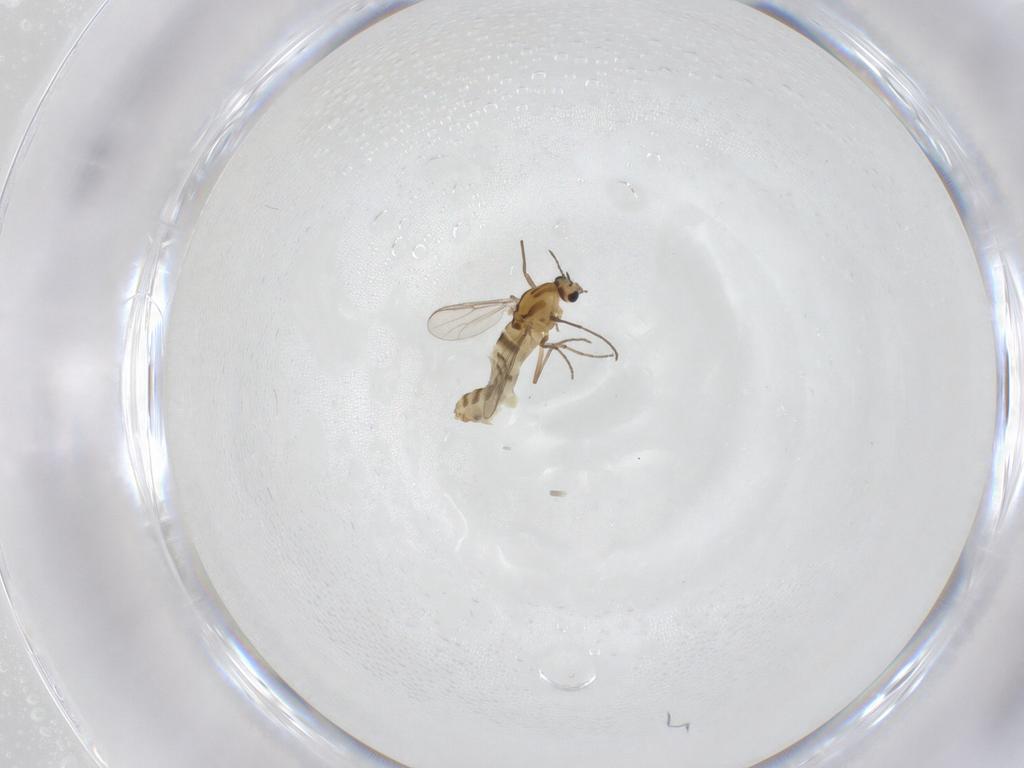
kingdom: Animalia
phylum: Arthropoda
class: Insecta
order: Diptera
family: Chironomidae
